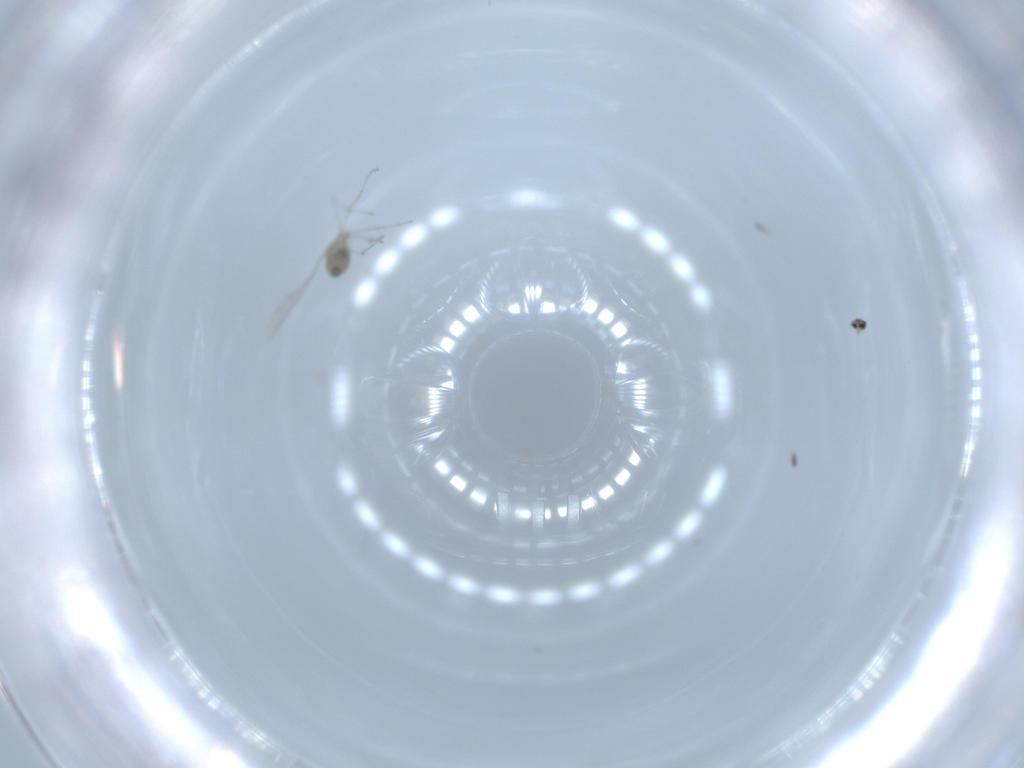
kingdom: Animalia
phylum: Arthropoda
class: Insecta
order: Diptera
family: Cecidomyiidae
